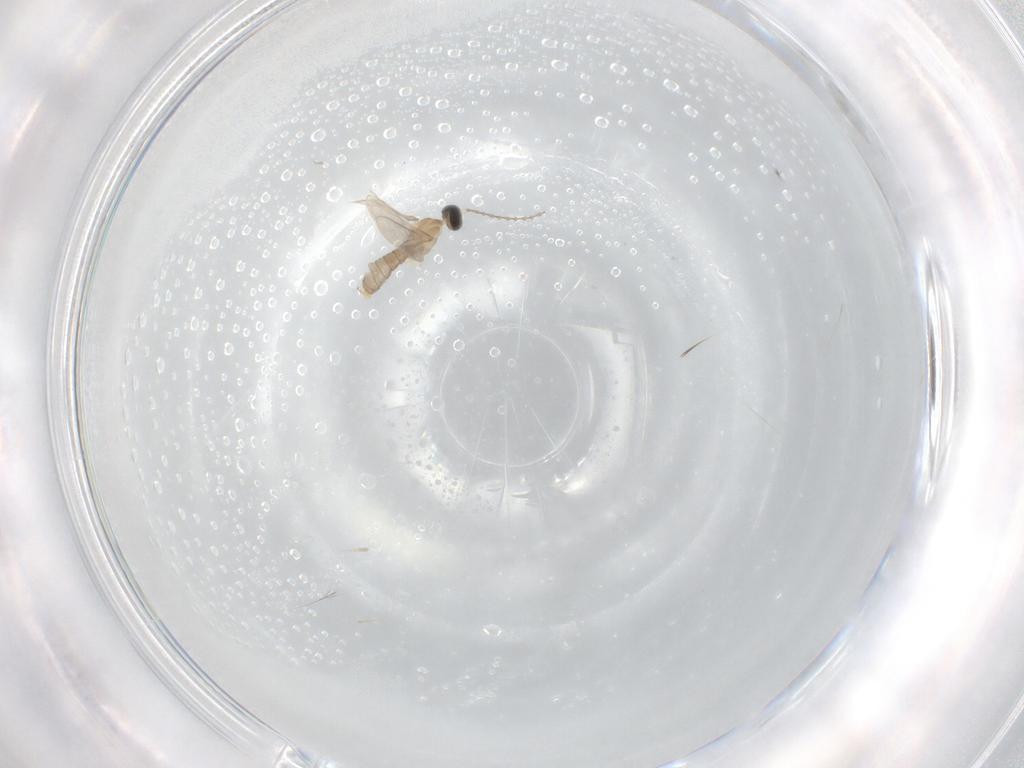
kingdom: Animalia
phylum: Arthropoda
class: Insecta
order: Diptera
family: Cecidomyiidae
